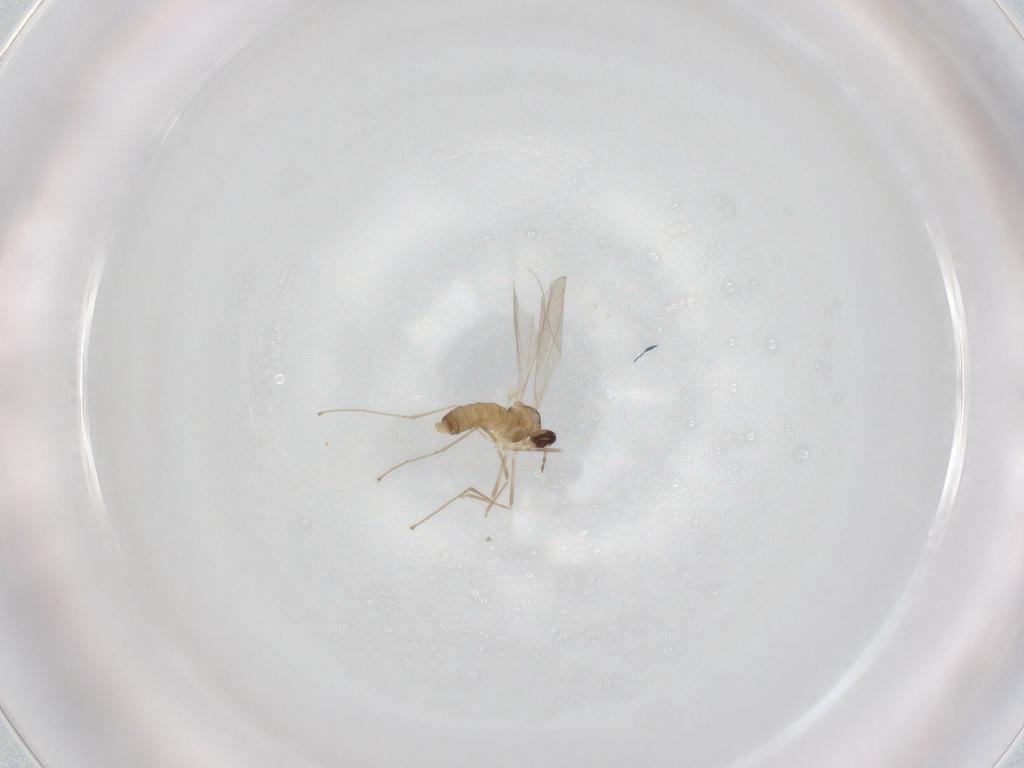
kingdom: Animalia
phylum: Arthropoda
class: Insecta
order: Diptera
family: Cecidomyiidae
